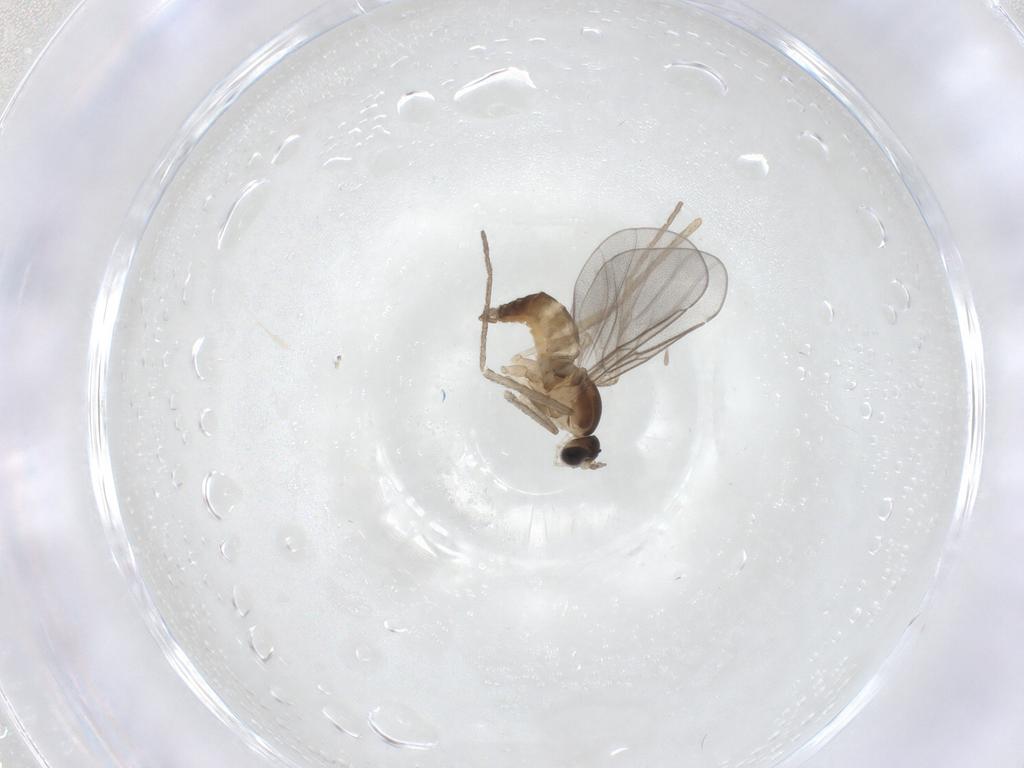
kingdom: Animalia
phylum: Arthropoda
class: Insecta
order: Diptera
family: Cecidomyiidae
